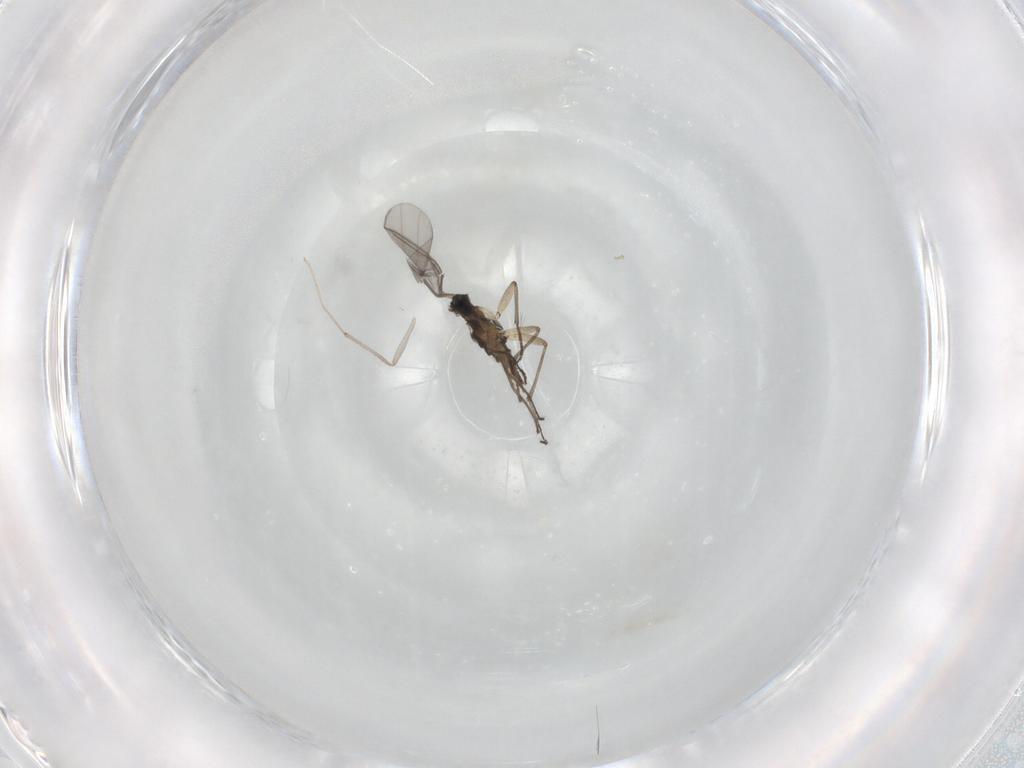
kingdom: Animalia
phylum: Arthropoda
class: Insecta
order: Diptera
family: Sciaridae
